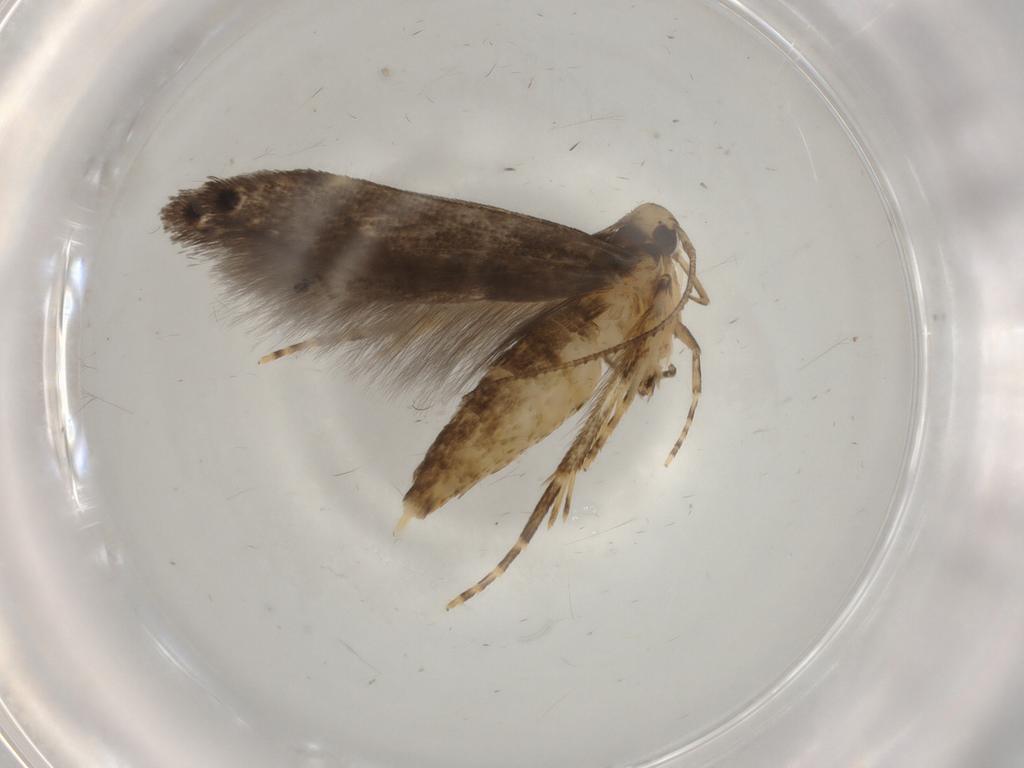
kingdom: Animalia
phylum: Arthropoda
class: Insecta
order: Lepidoptera
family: Cosmopterigidae
